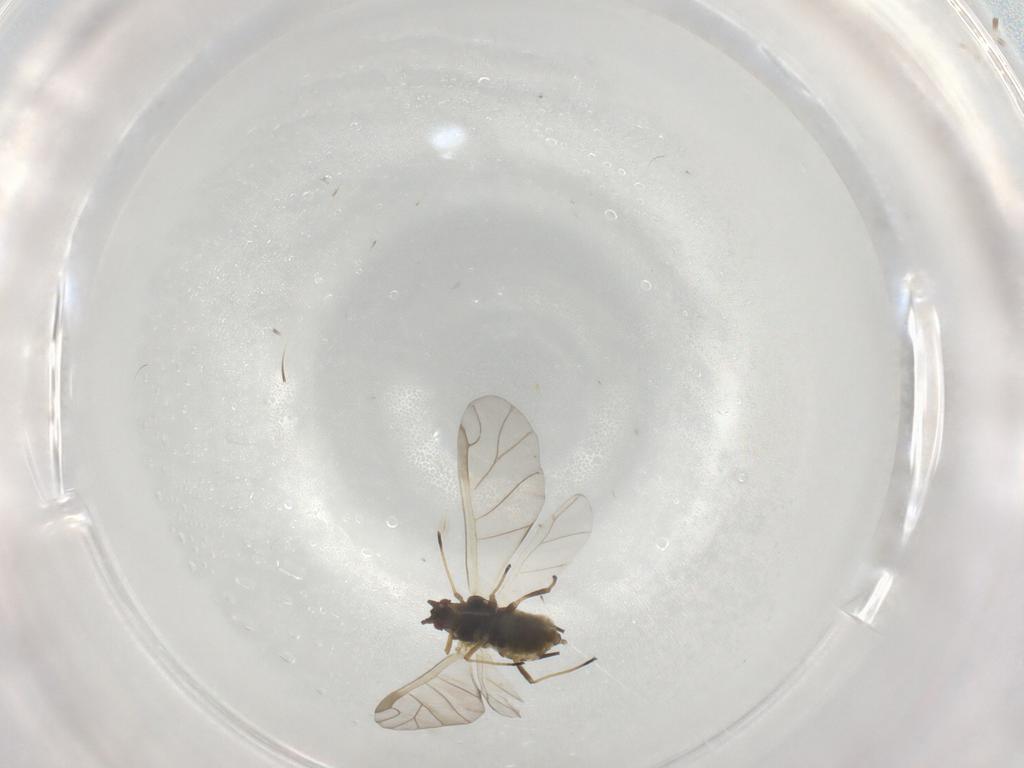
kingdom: Animalia
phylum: Arthropoda
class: Insecta
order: Hemiptera
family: Aphididae
